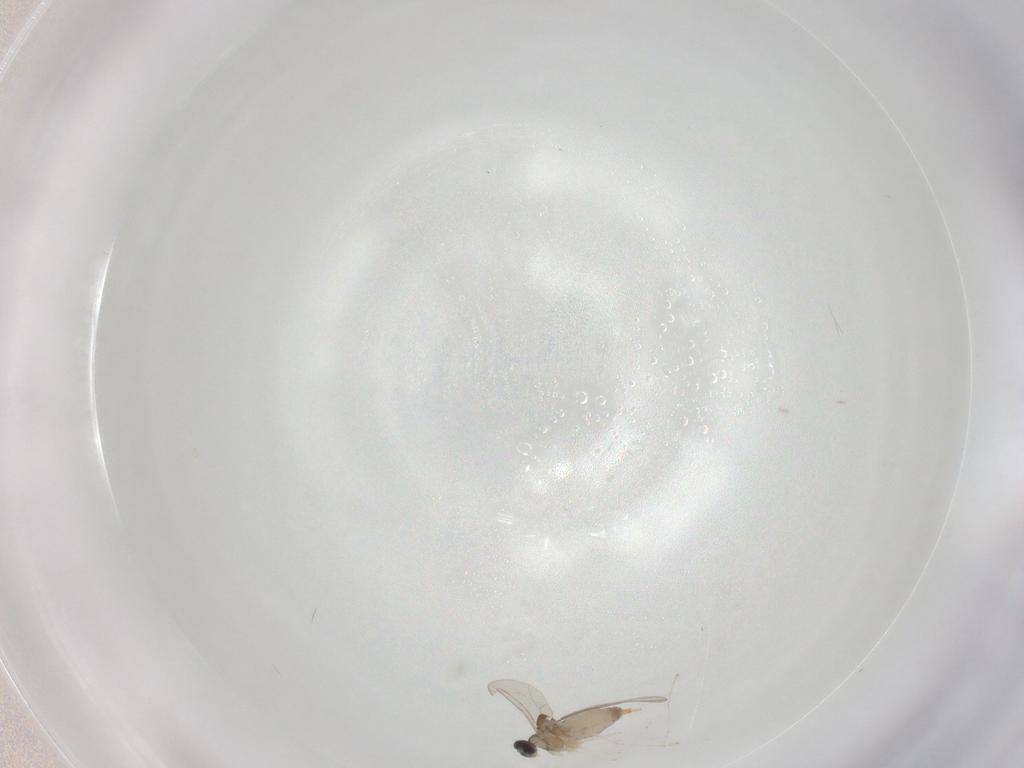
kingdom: Animalia
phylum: Arthropoda
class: Insecta
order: Diptera
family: Cecidomyiidae
